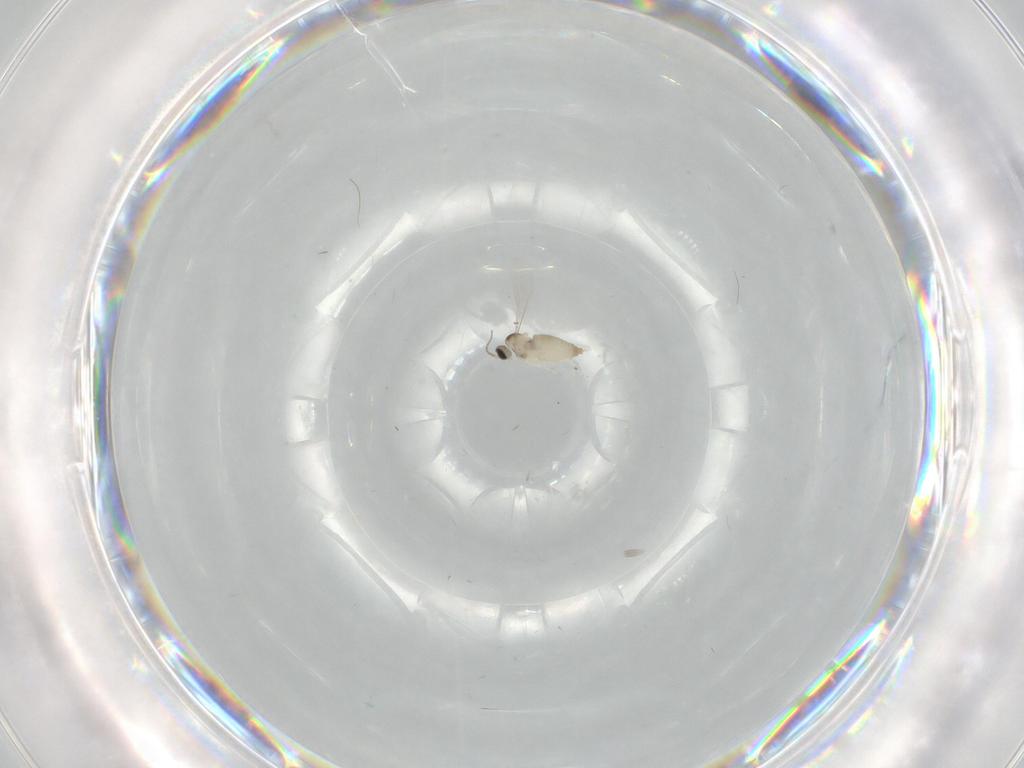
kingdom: Animalia
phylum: Arthropoda
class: Insecta
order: Diptera
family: Tabanidae
